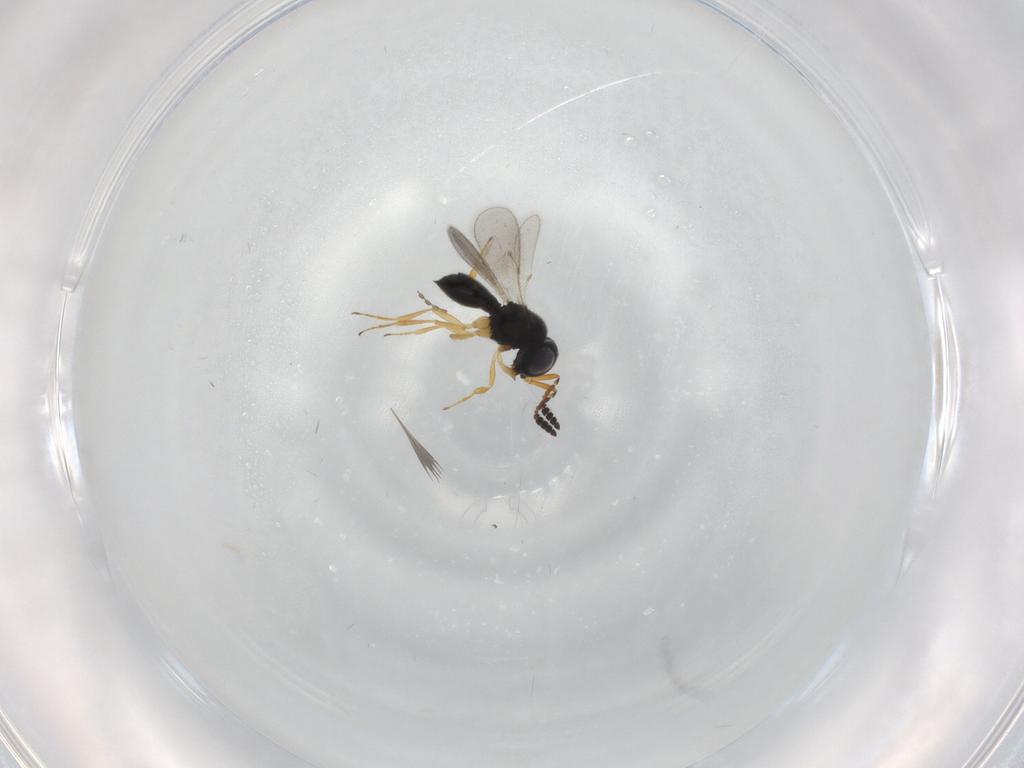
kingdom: Animalia
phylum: Arthropoda
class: Insecta
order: Hymenoptera
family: Scelionidae
